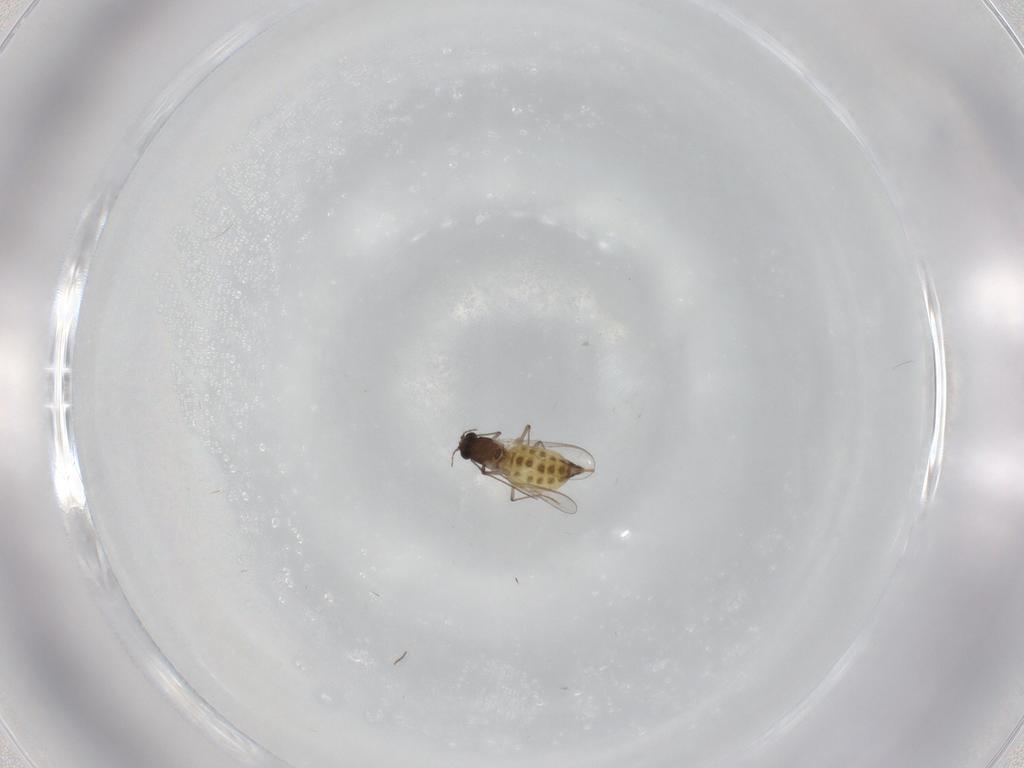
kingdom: Animalia
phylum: Arthropoda
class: Insecta
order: Diptera
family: Chironomidae
